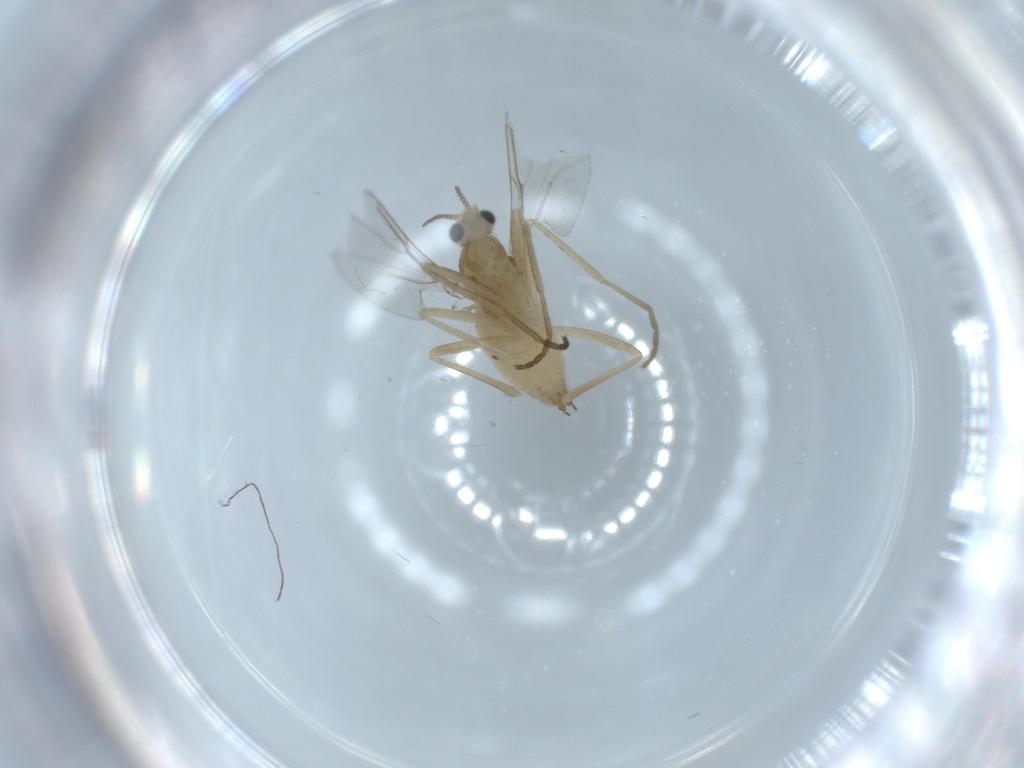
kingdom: Animalia
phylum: Arthropoda
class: Insecta
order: Diptera
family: Cecidomyiidae
